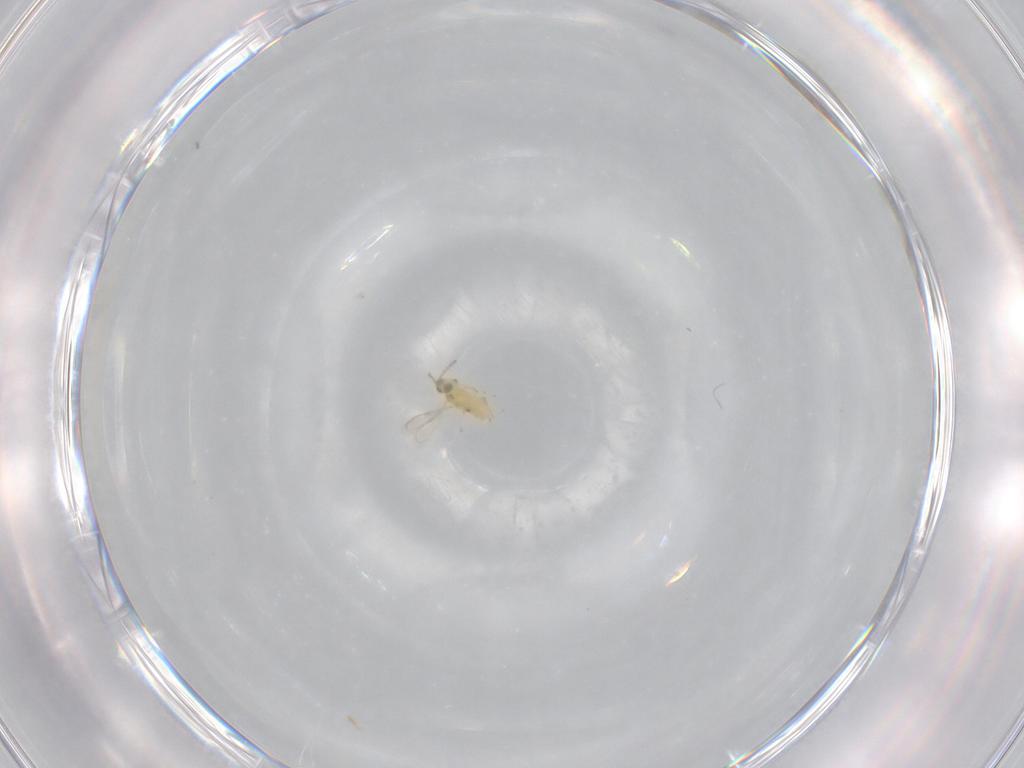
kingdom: Animalia
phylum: Arthropoda
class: Insecta
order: Hymenoptera
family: Aphelinidae
